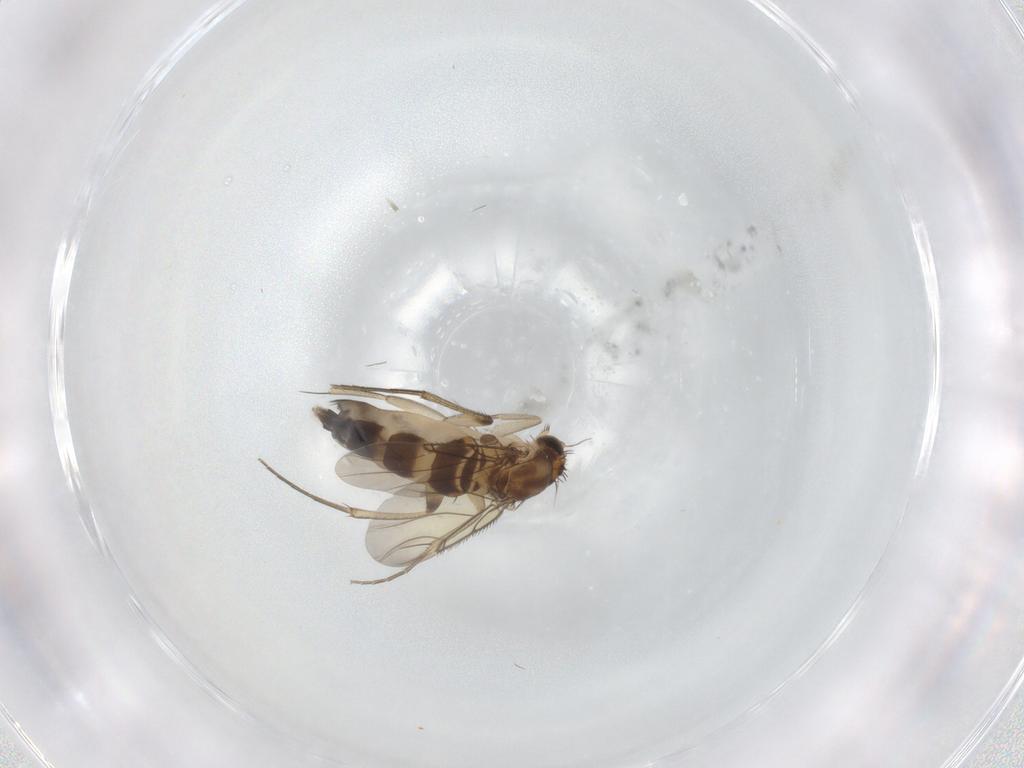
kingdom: Animalia
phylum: Arthropoda
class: Insecta
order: Diptera
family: Phoridae
